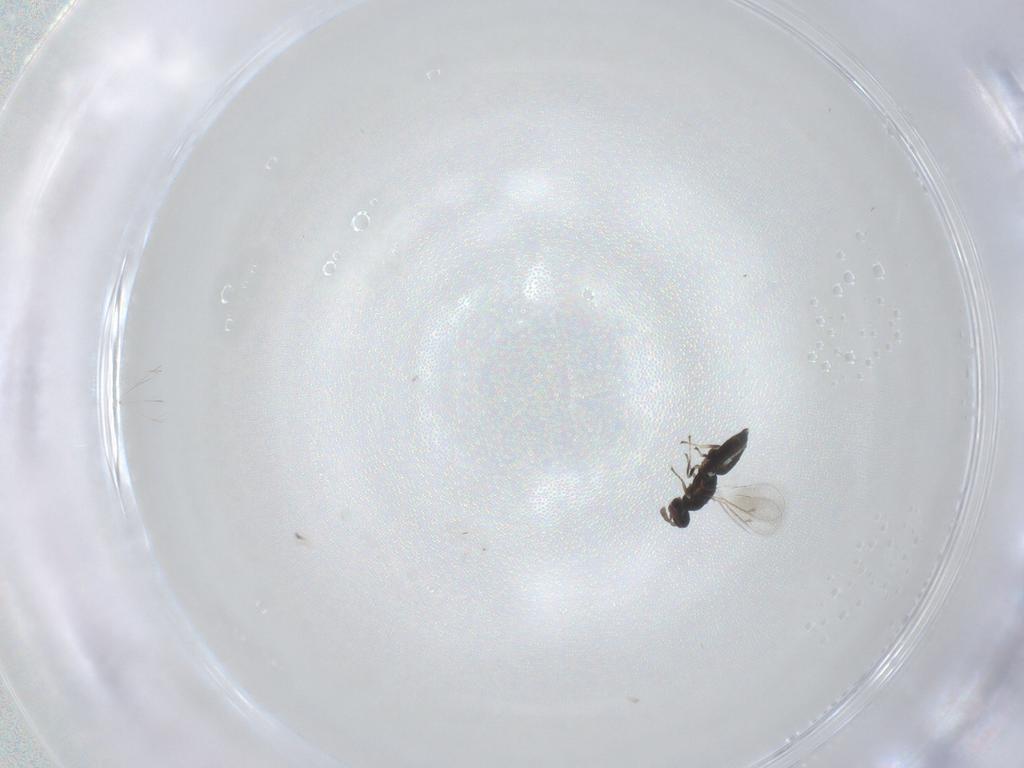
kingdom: Animalia
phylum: Arthropoda
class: Insecta
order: Hymenoptera
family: Eulophidae
